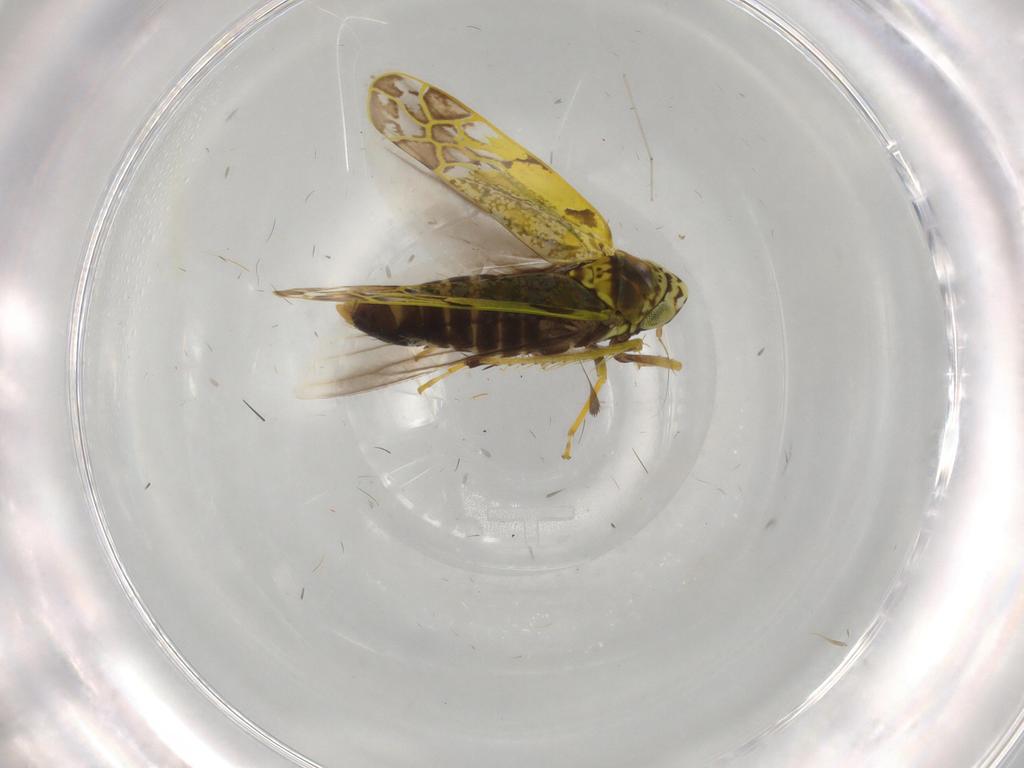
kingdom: Animalia
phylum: Arthropoda
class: Insecta
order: Hemiptera
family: Cicadellidae
